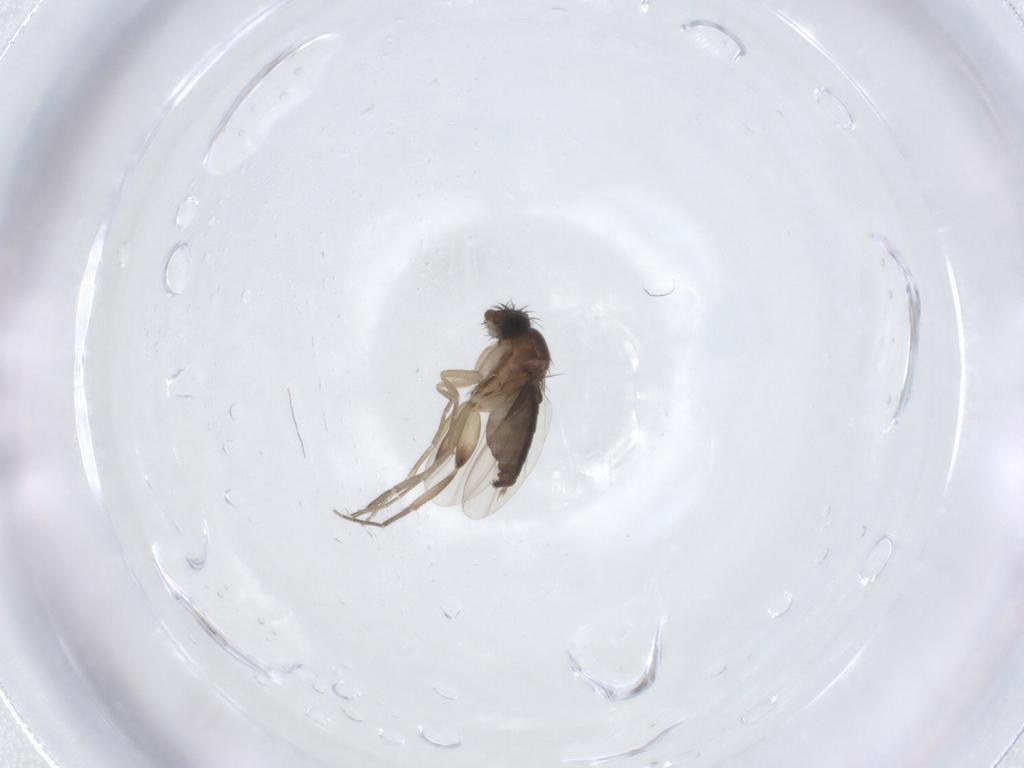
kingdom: Animalia
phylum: Arthropoda
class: Insecta
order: Diptera
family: Phoridae
